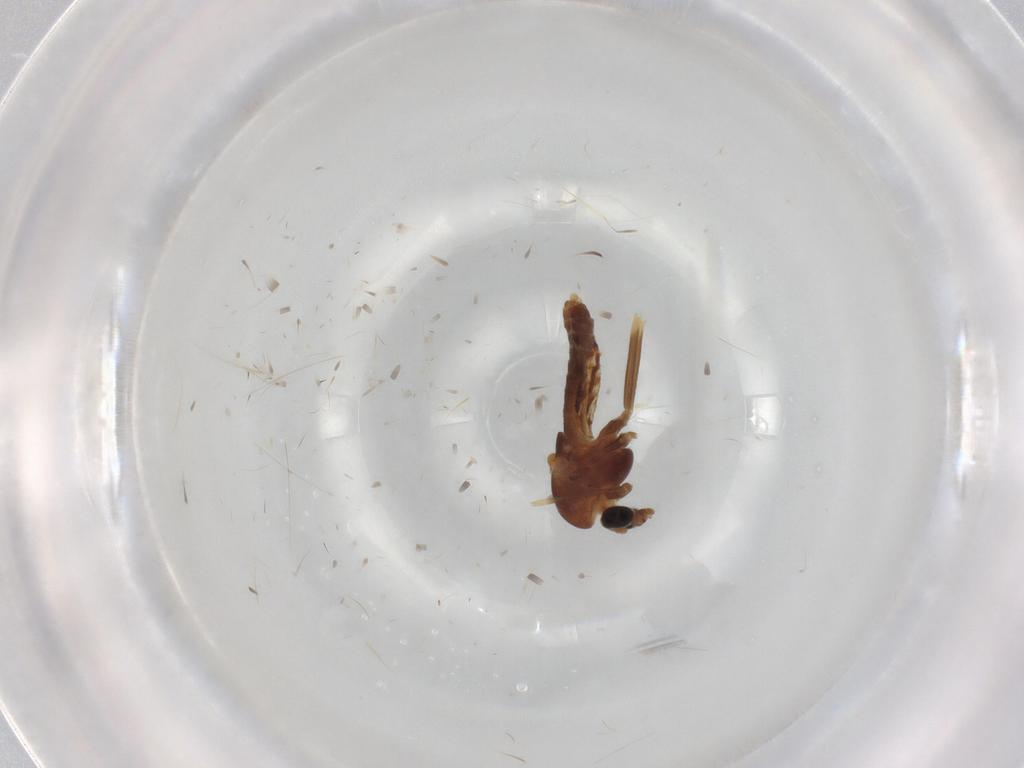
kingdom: Animalia
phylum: Arthropoda
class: Insecta
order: Diptera
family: Chironomidae
